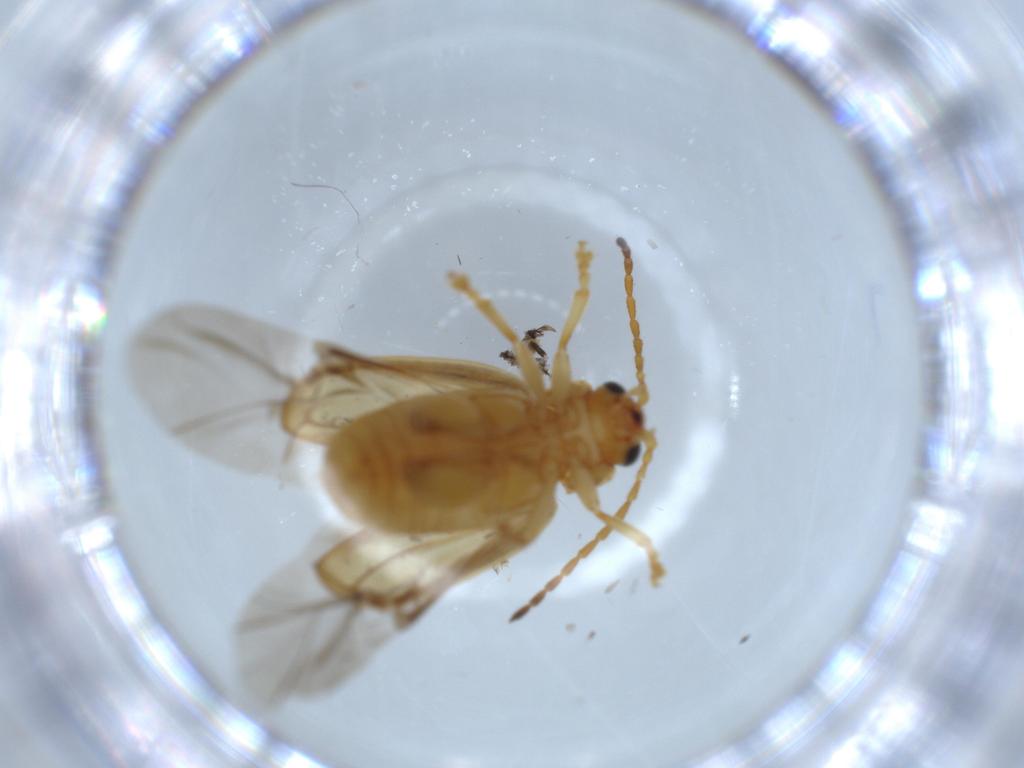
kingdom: Animalia
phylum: Arthropoda
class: Insecta
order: Coleoptera
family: Chrysomelidae
